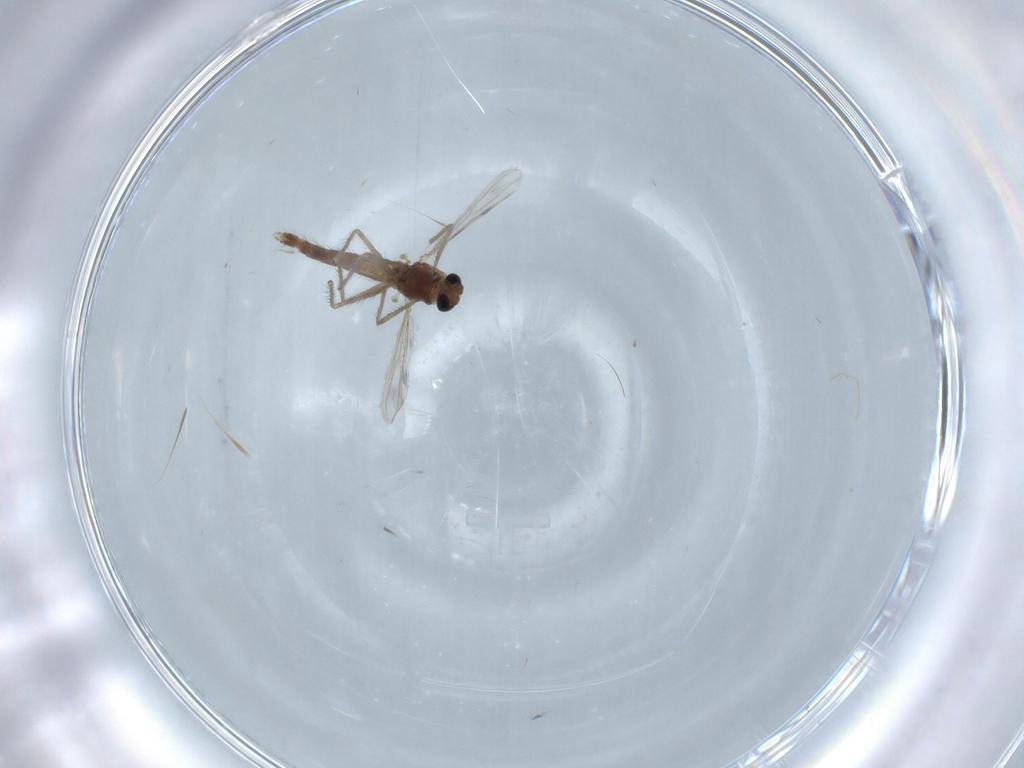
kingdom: Animalia
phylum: Arthropoda
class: Insecta
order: Diptera
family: Chironomidae
